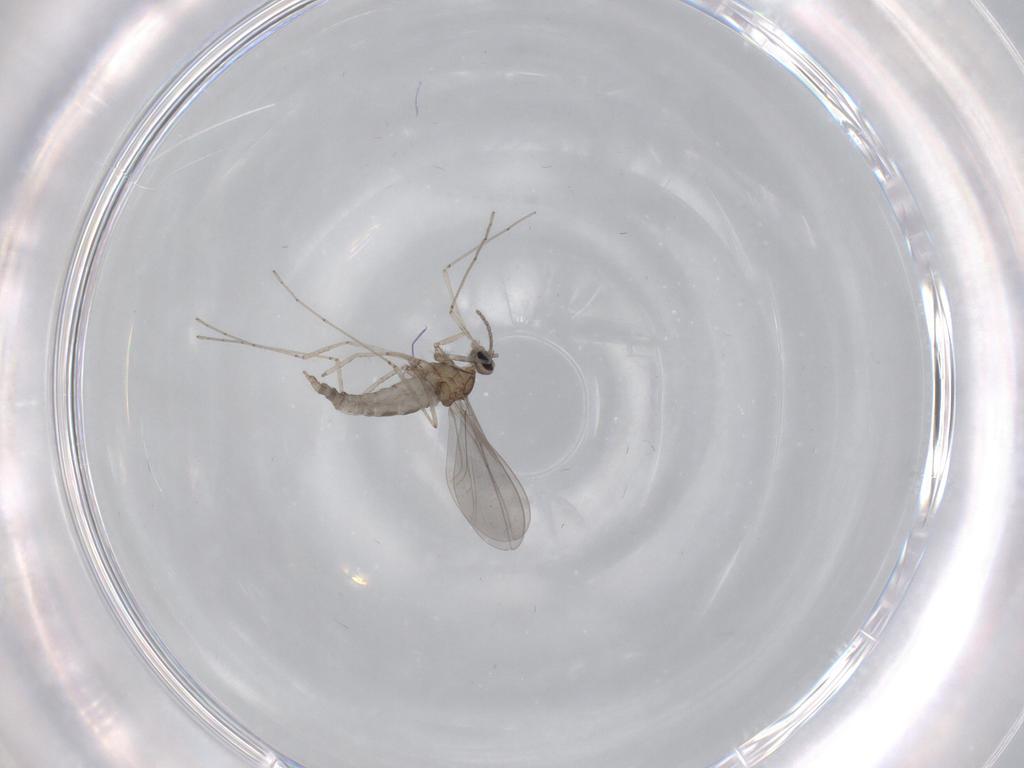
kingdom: Animalia
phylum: Arthropoda
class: Insecta
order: Diptera
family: Cecidomyiidae
